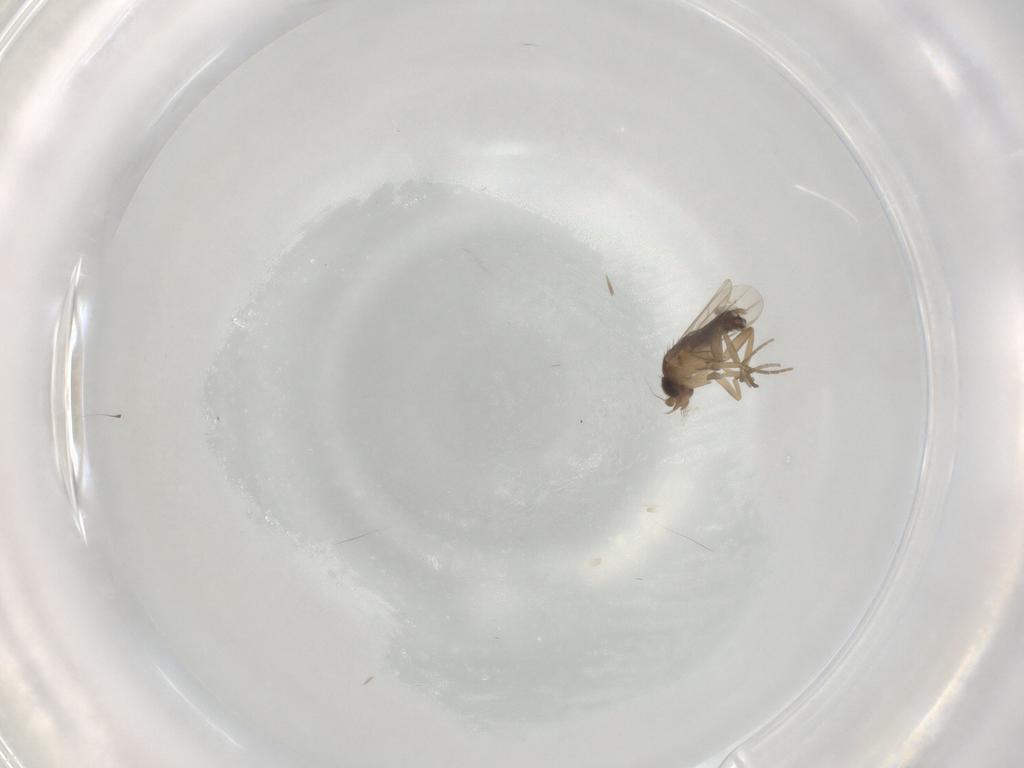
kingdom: Animalia
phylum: Arthropoda
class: Insecta
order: Diptera
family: Phoridae
